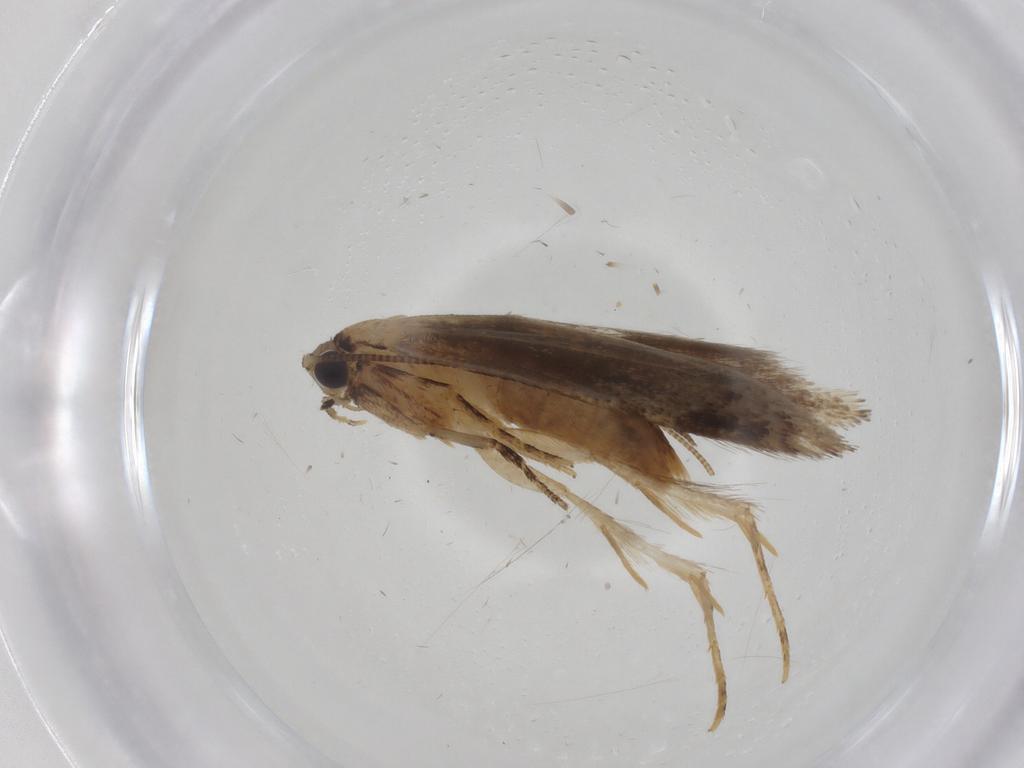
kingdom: Animalia
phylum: Arthropoda
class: Insecta
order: Lepidoptera
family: Tineidae
